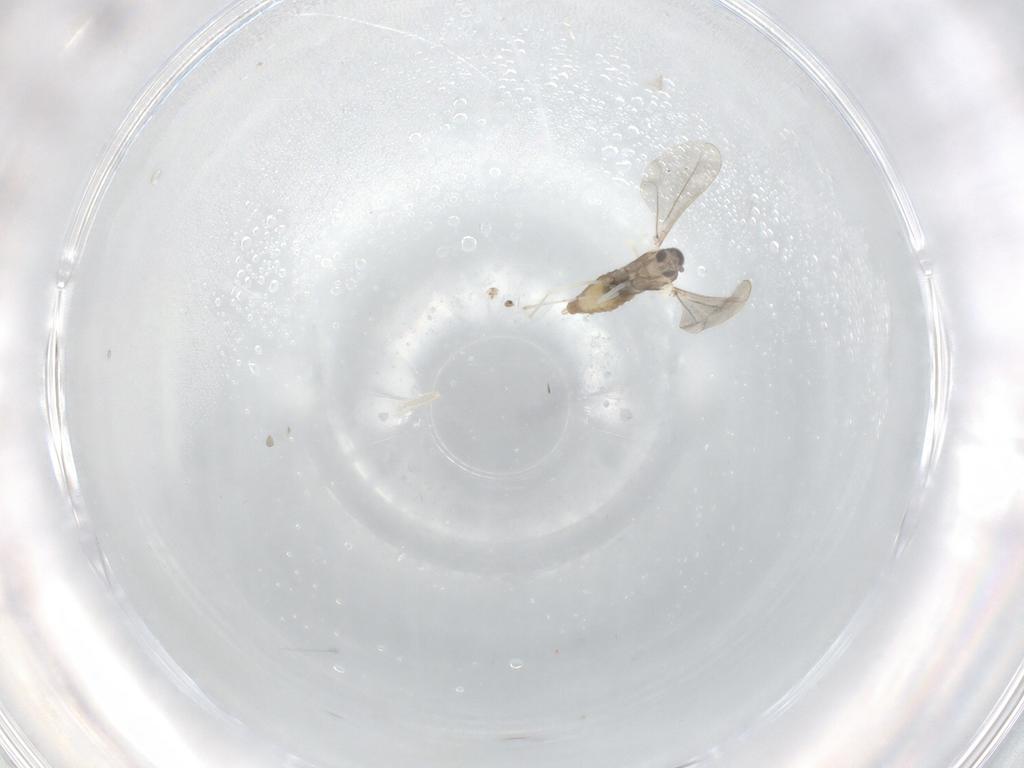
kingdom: Animalia
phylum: Arthropoda
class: Insecta
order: Diptera
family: Cecidomyiidae
